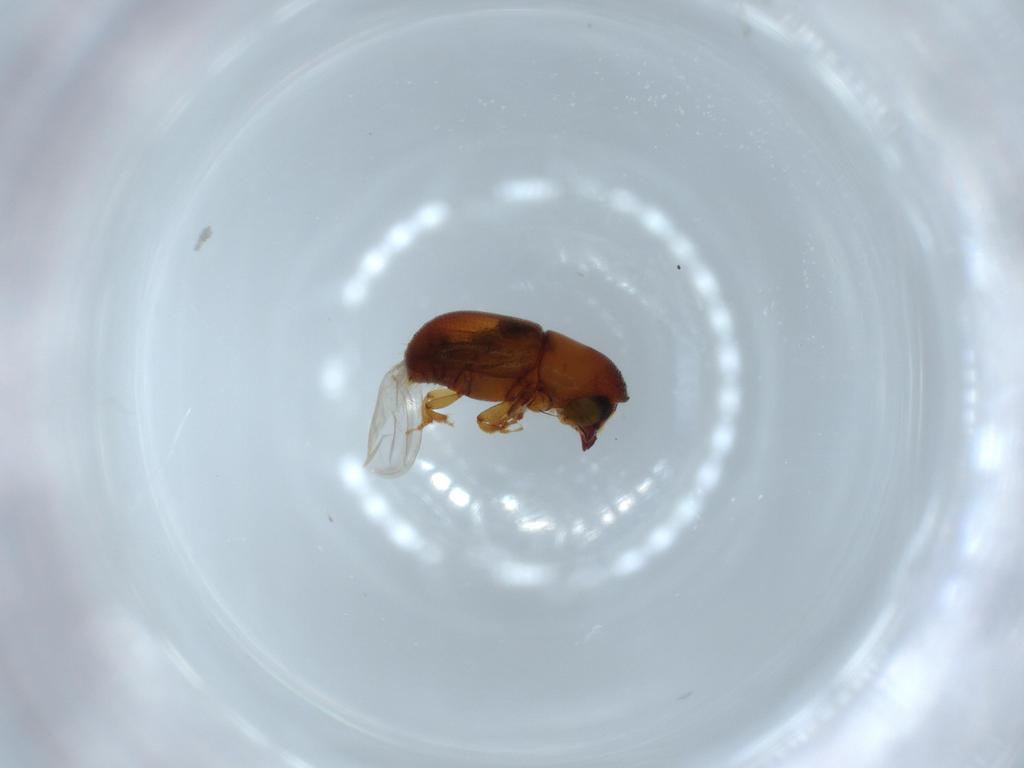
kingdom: Animalia
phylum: Arthropoda
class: Insecta
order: Coleoptera
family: Curculionidae
